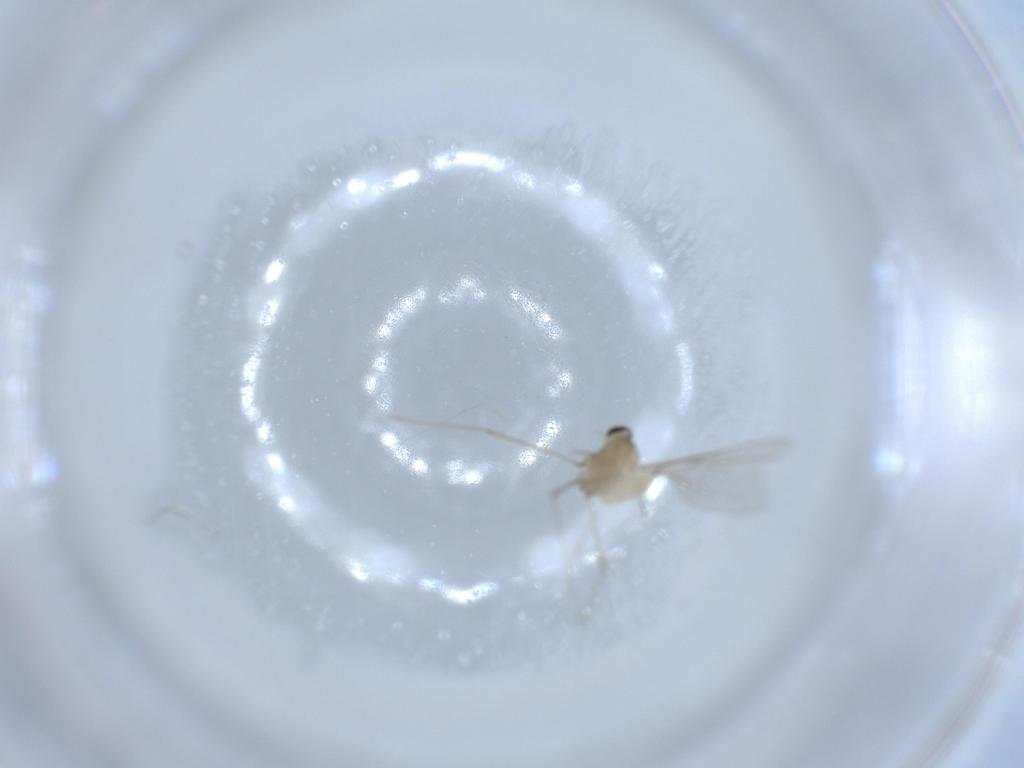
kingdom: Animalia
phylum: Arthropoda
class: Insecta
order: Diptera
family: Cecidomyiidae
